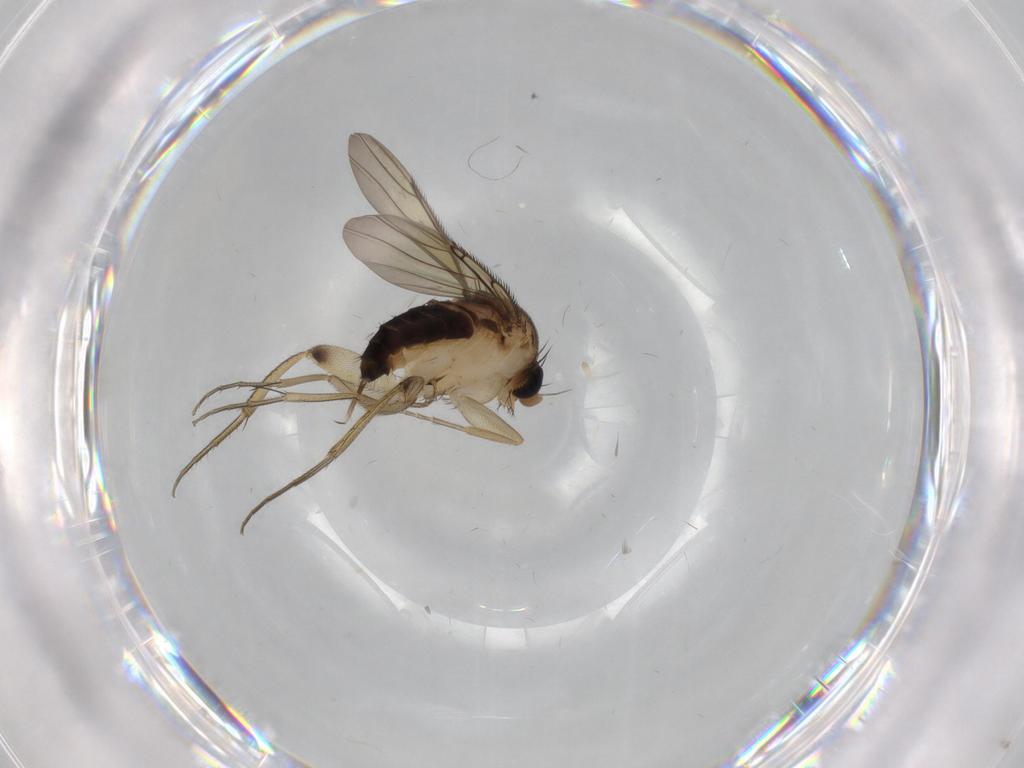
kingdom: Animalia
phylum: Arthropoda
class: Insecta
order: Diptera
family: Phoridae
